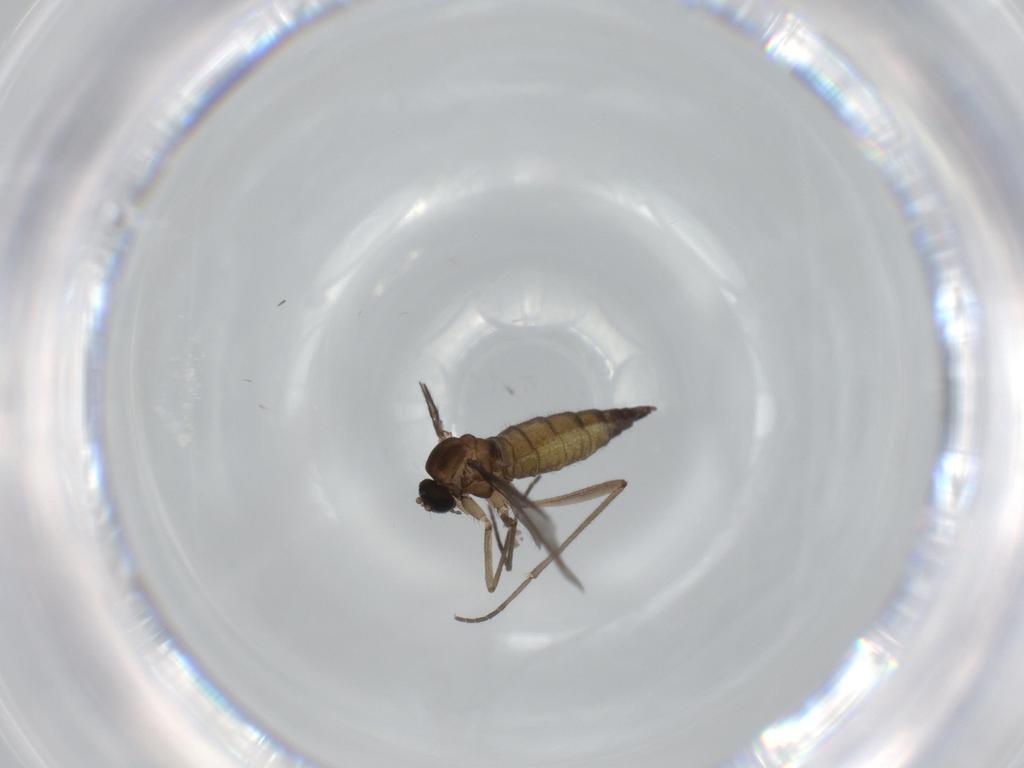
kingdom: Animalia
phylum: Arthropoda
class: Insecta
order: Diptera
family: Sciaridae
